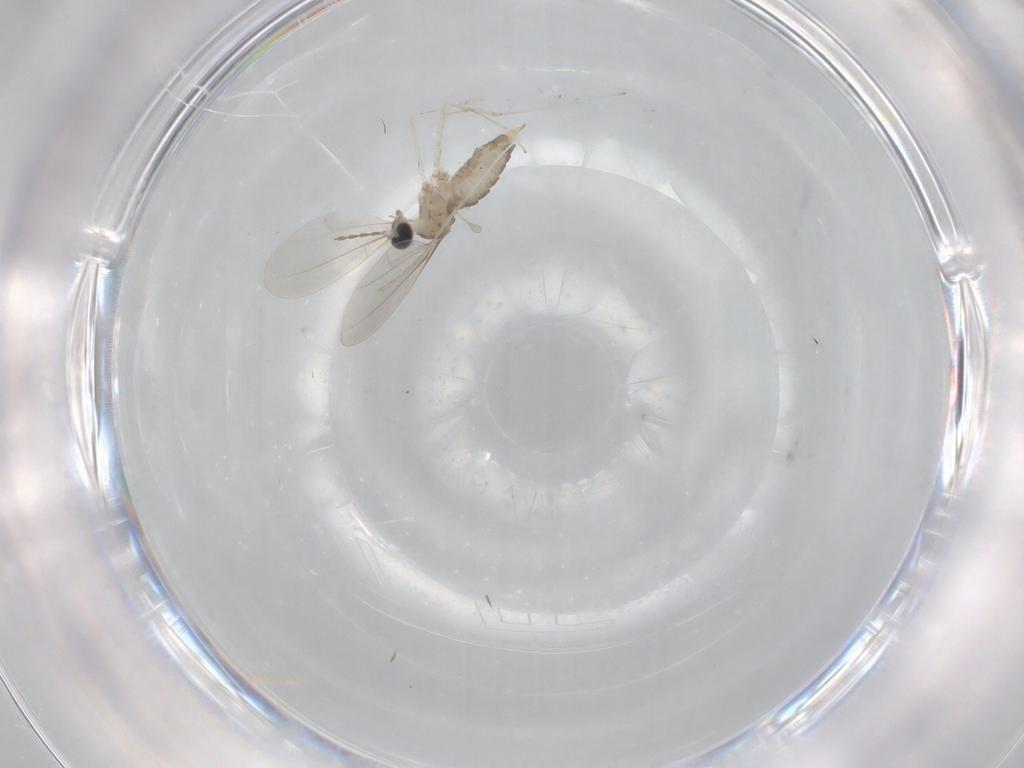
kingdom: Animalia
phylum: Arthropoda
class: Insecta
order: Diptera
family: Cecidomyiidae
